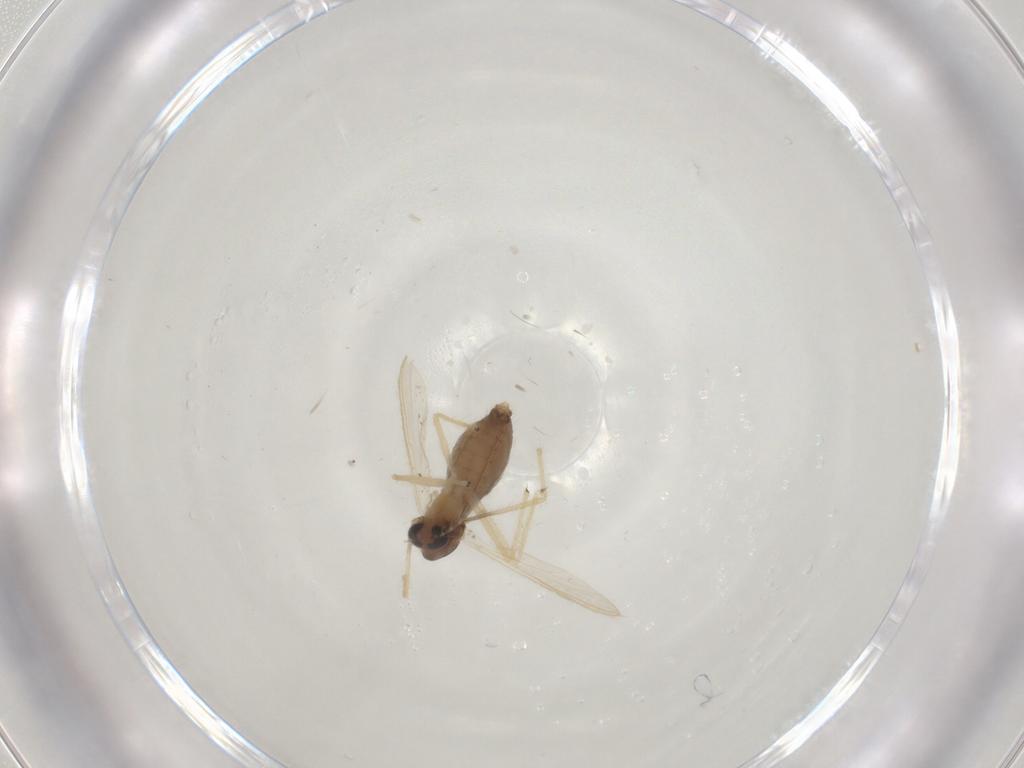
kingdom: Animalia
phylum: Arthropoda
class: Insecta
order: Diptera
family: Chironomidae
